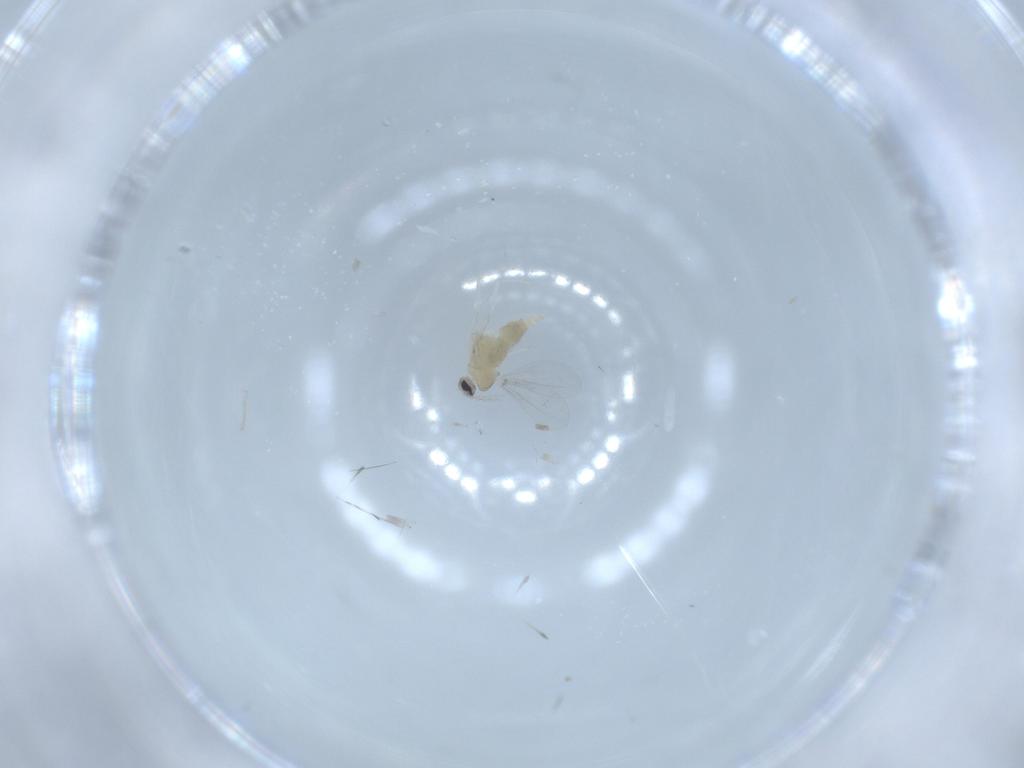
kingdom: Animalia
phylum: Arthropoda
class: Insecta
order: Diptera
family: Cecidomyiidae
